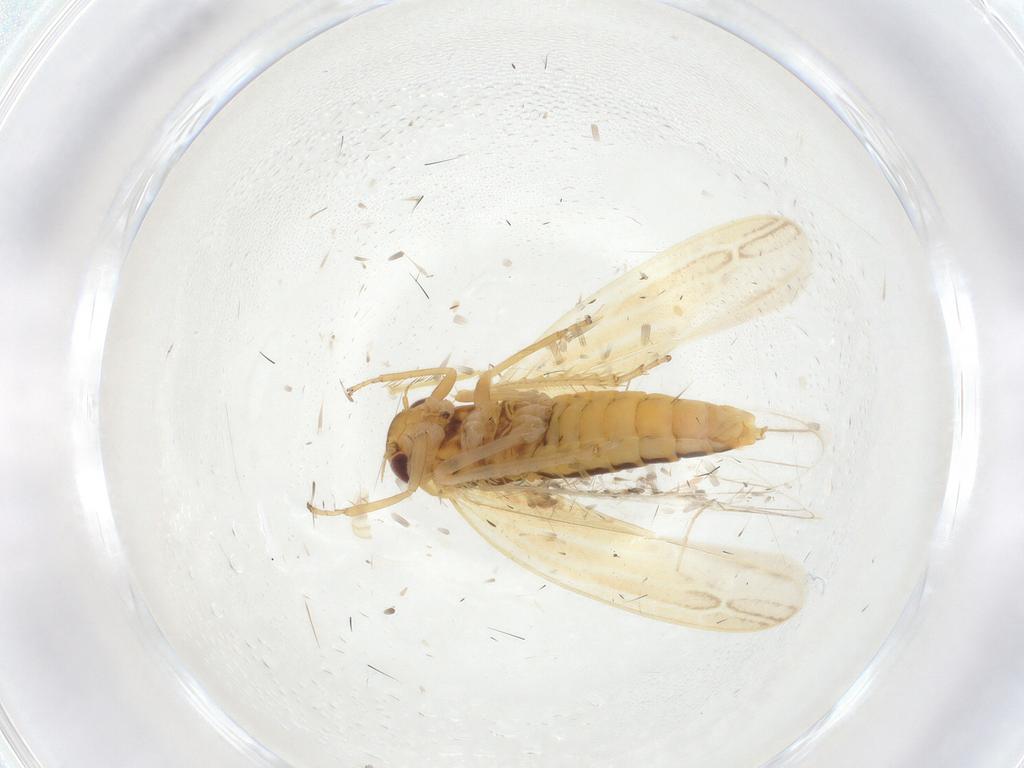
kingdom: Animalia
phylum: Arthropoda
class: Insecta
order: Hemiptera
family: Cicadellidae
